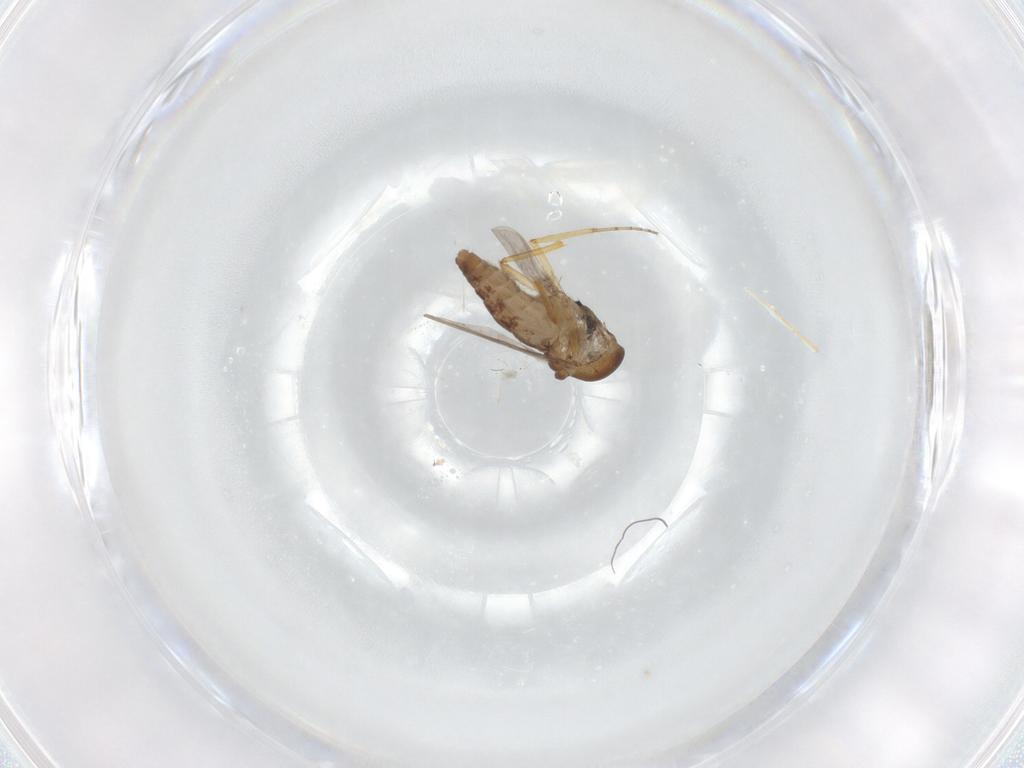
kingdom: Animalia
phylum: Arthropoda
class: Insecta
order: Diptera
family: Ceratopogonidae
